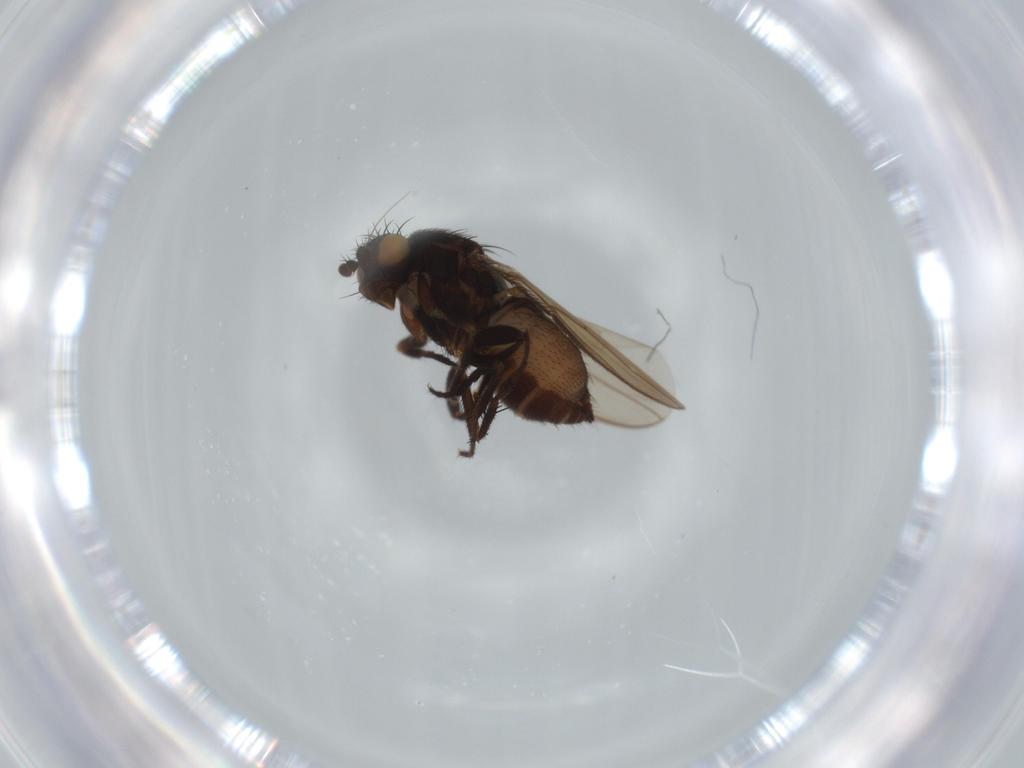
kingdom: Animalia
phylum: Arthropoda
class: Insecta
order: Diptera
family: Sphaeroceridae
